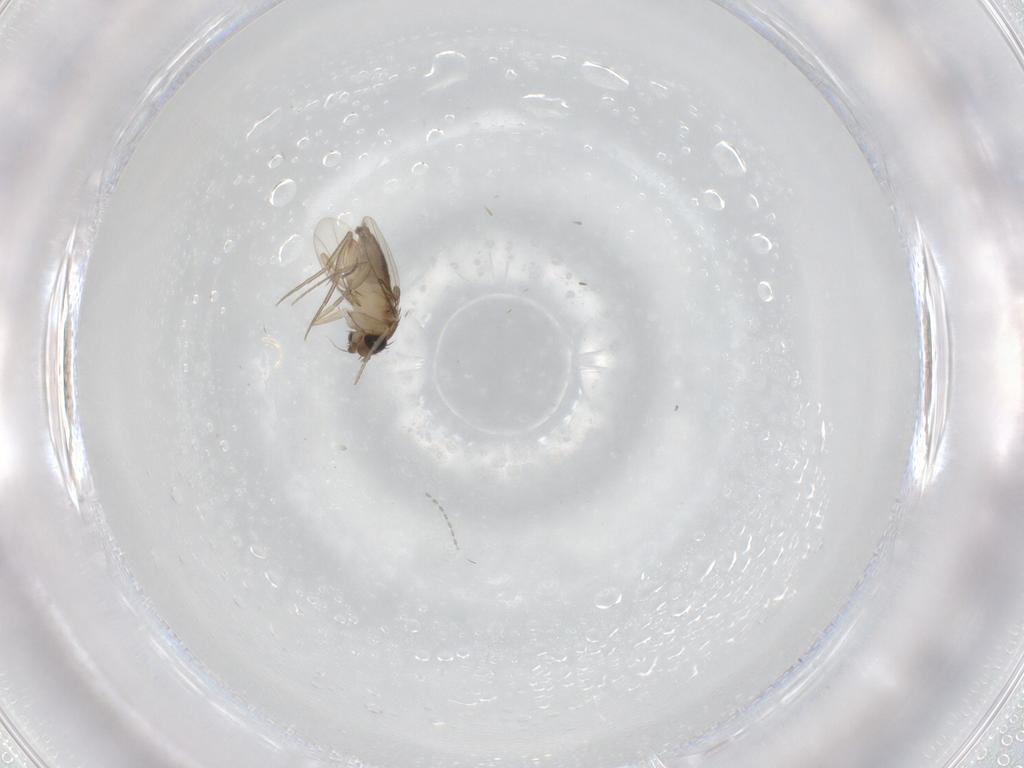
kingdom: Animalia
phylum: Arthropoda
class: Insecta
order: Diptera
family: Phoridae
